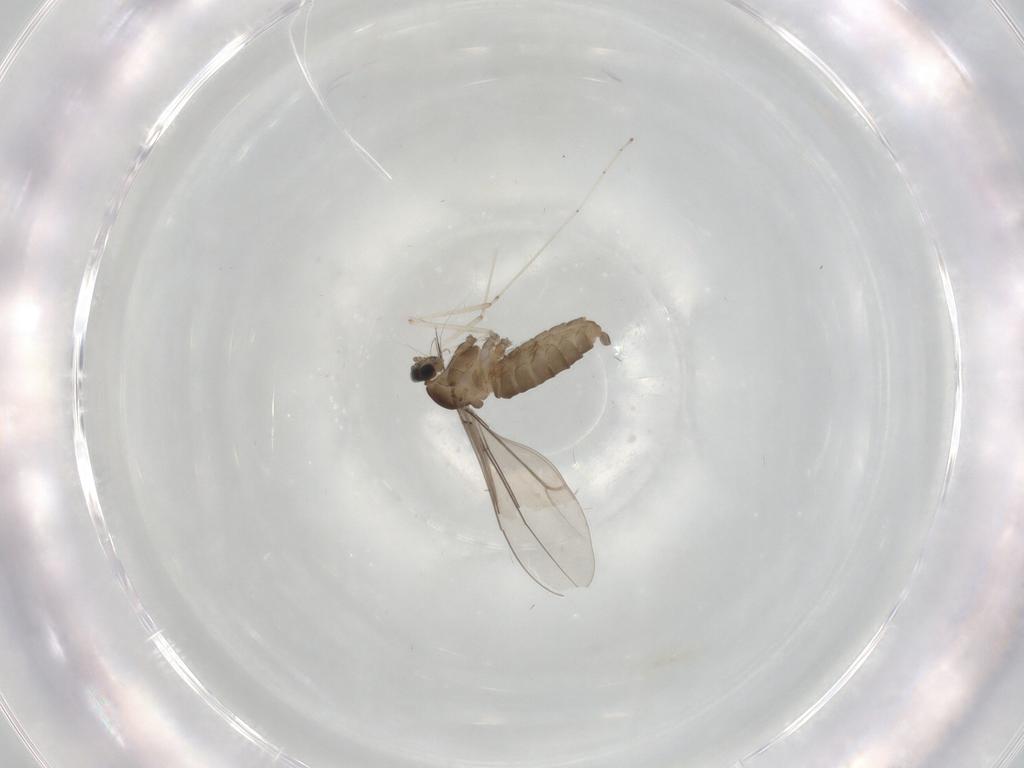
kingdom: Animalia
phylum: Arthropoda
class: Insecta
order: Diptera
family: Cecidomyiidae
